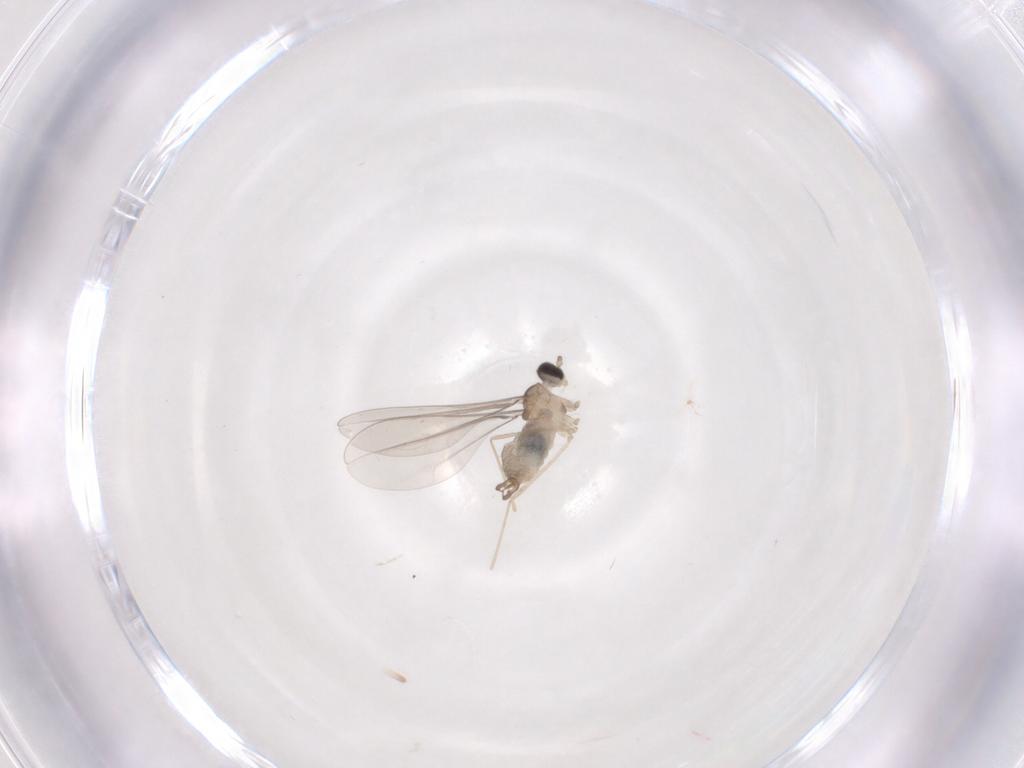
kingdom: Animalia
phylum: Arthropoda
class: Insecta
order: Diptera
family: Cecidomyiidae
